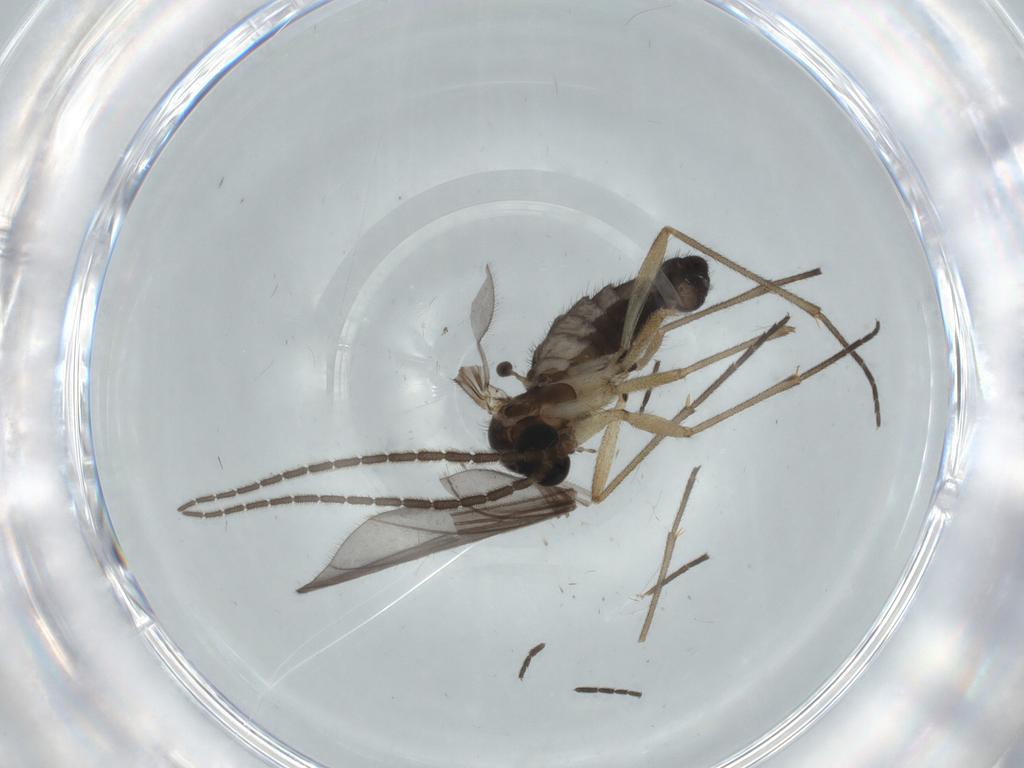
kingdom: Animalia
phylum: Arthropoda
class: Insecta
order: Diptera
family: Sciaridae
